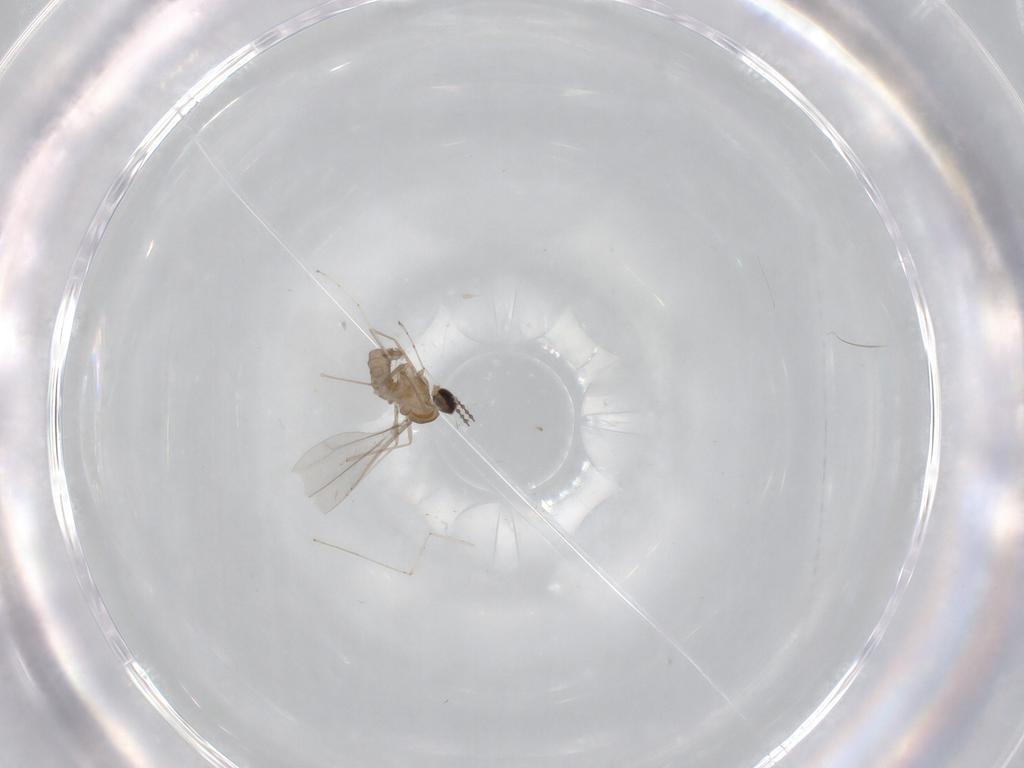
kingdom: Animalia
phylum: Arthropoda
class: Insecta
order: Diptera
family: Cecidomyiidae
